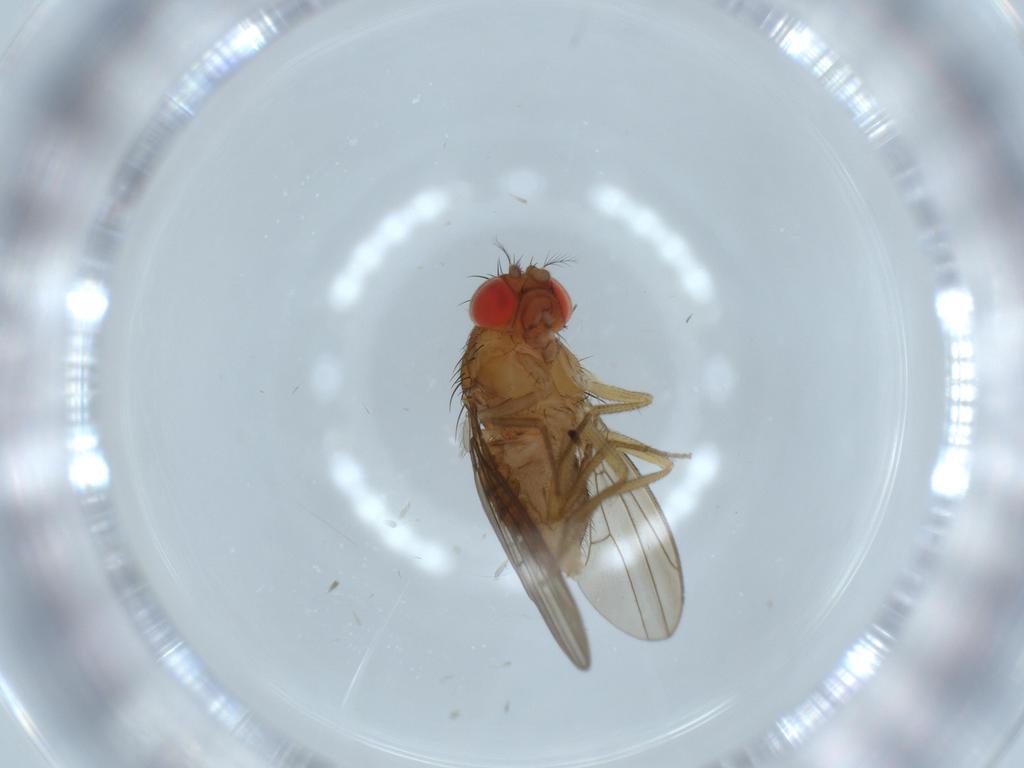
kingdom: Animalia
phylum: Arthropoda
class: Insecta
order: Diptera
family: Drosophilidae
